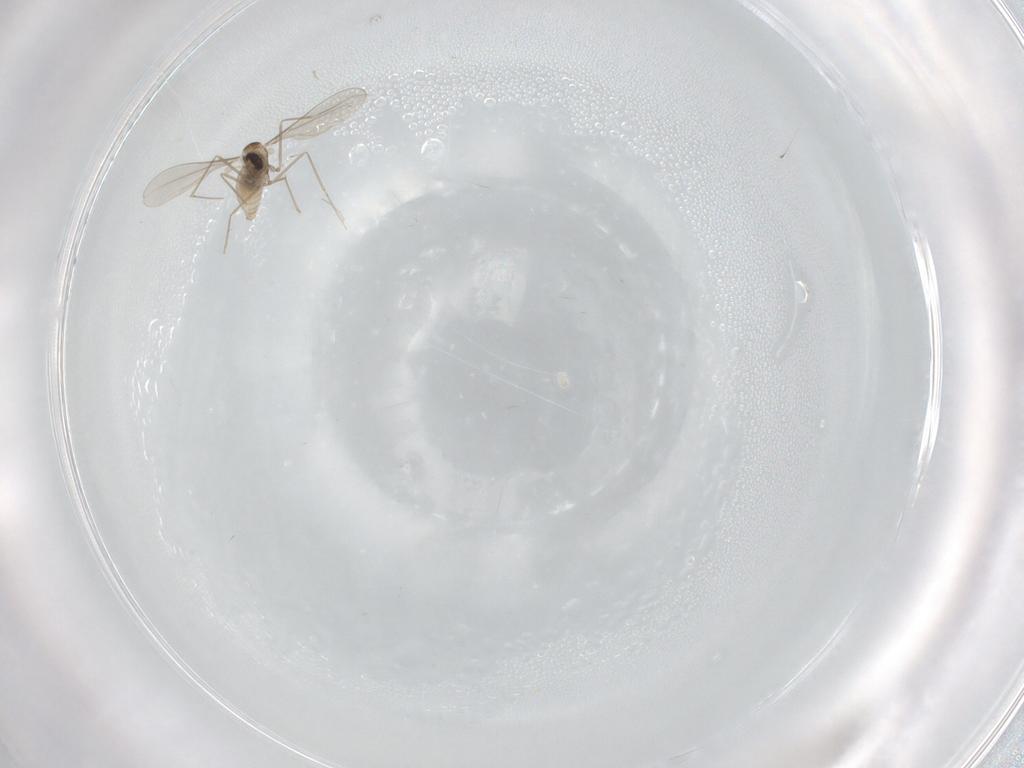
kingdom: Animalia
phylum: Arthropoda
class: Insecta
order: Diptera
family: Cecidomyiidae
